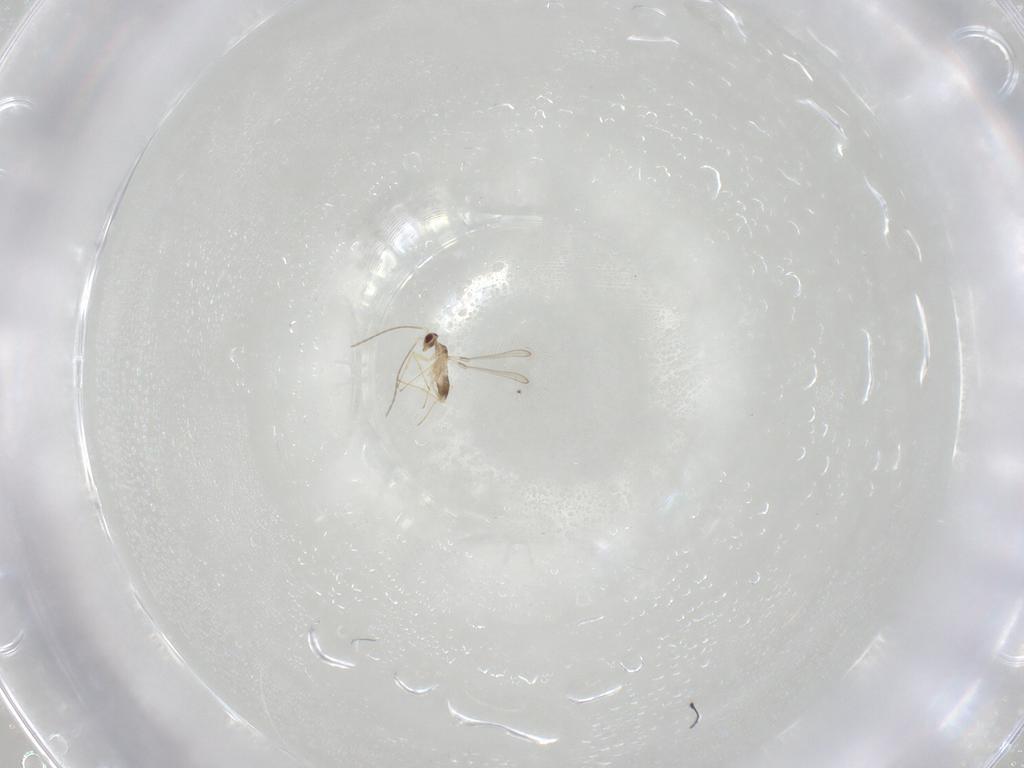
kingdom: Animalia
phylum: Arthropoda
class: Insecta
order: Hymenoptera
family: Mymaridae
